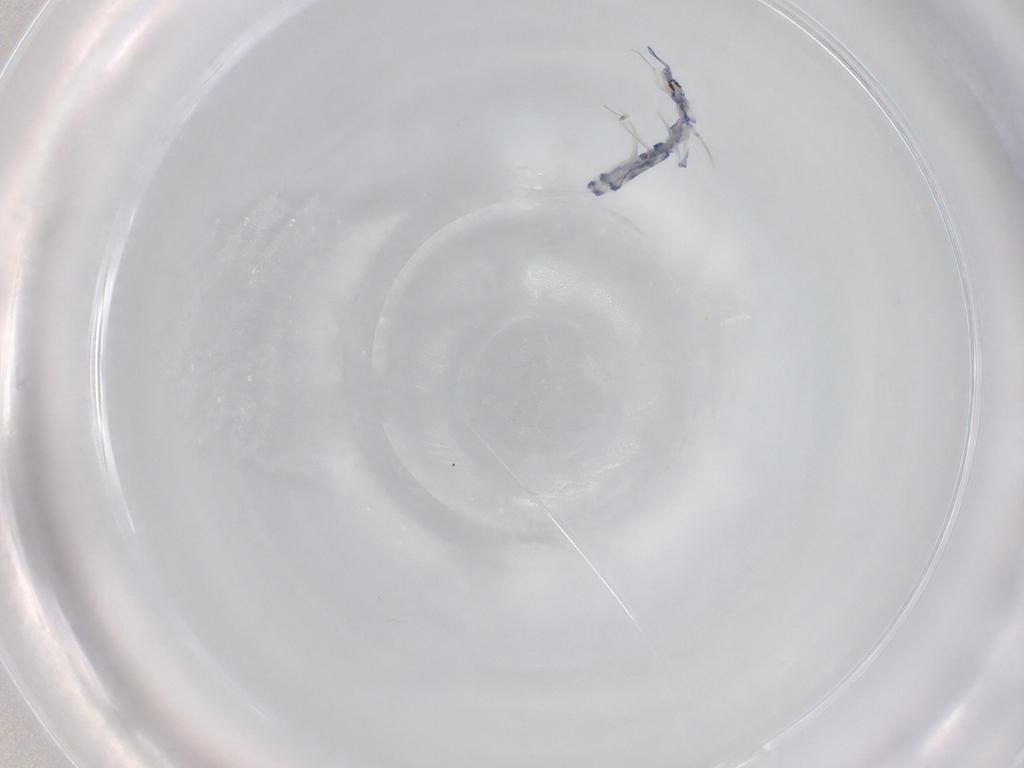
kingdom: Animalia
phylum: Arthropoda
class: Collembola
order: Entomobryomorpha
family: Entomobryidae
